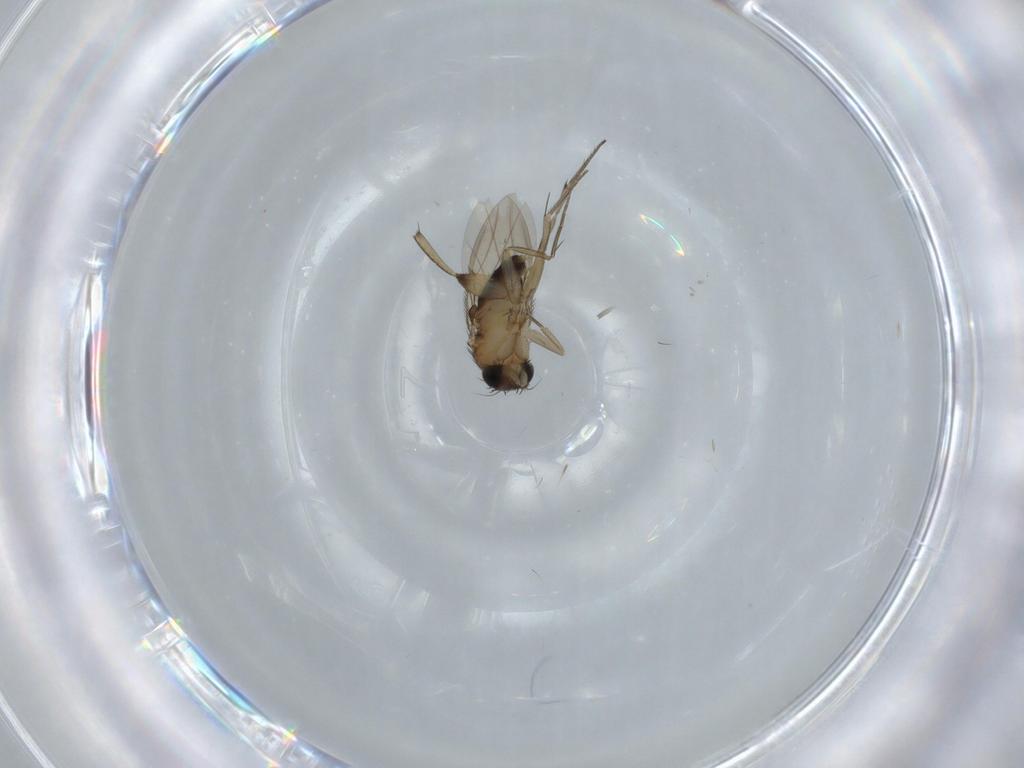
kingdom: Animalia
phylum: Arthropoda
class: Insecta
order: Diptera
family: Phoridae
